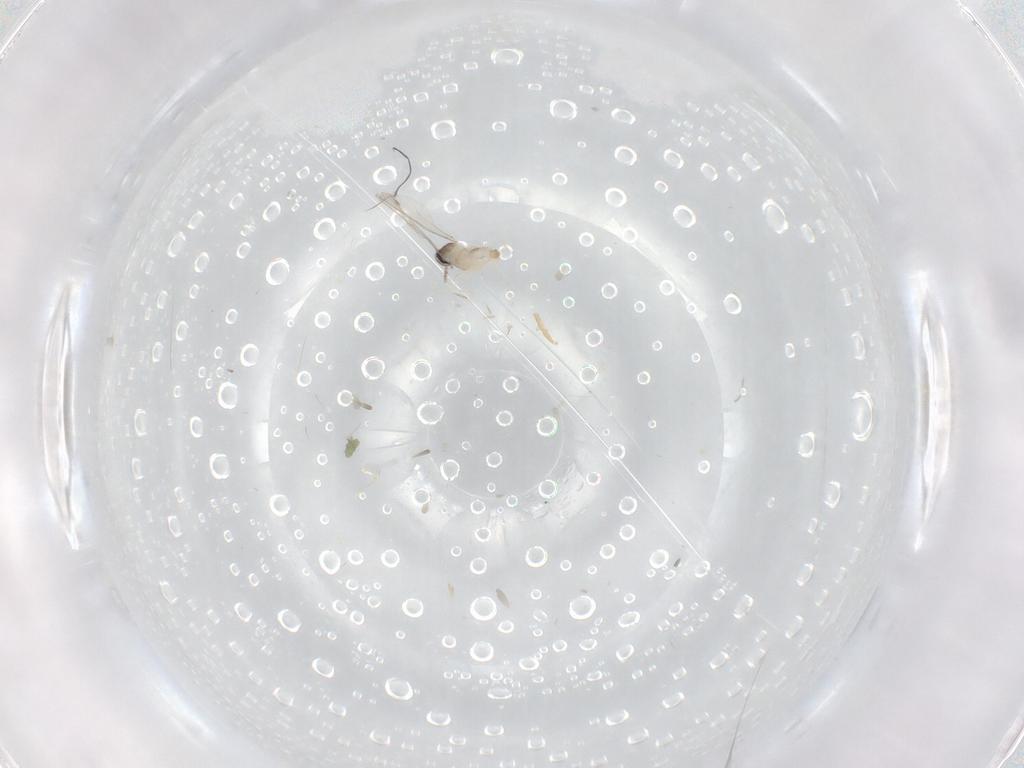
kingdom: Animalia
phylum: Arthropoda
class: Insecta
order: Diptera
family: Cecidomyiidae
